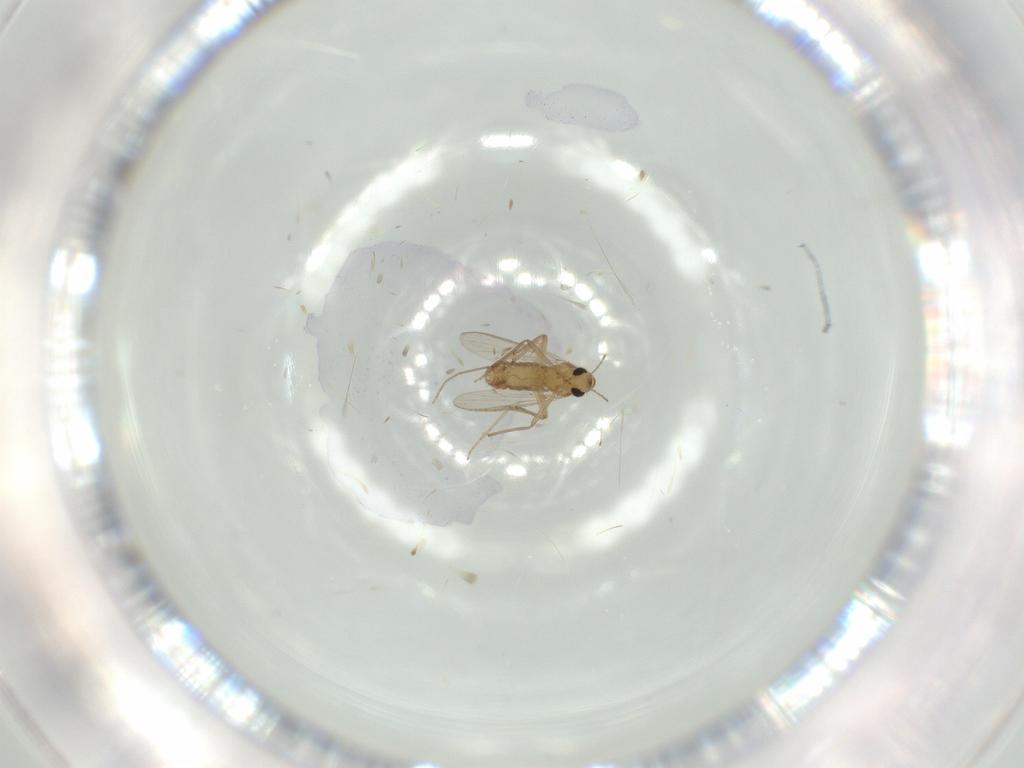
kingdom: Animalia
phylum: Arthropoda
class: Insecta
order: Diptera
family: Chironomidae
